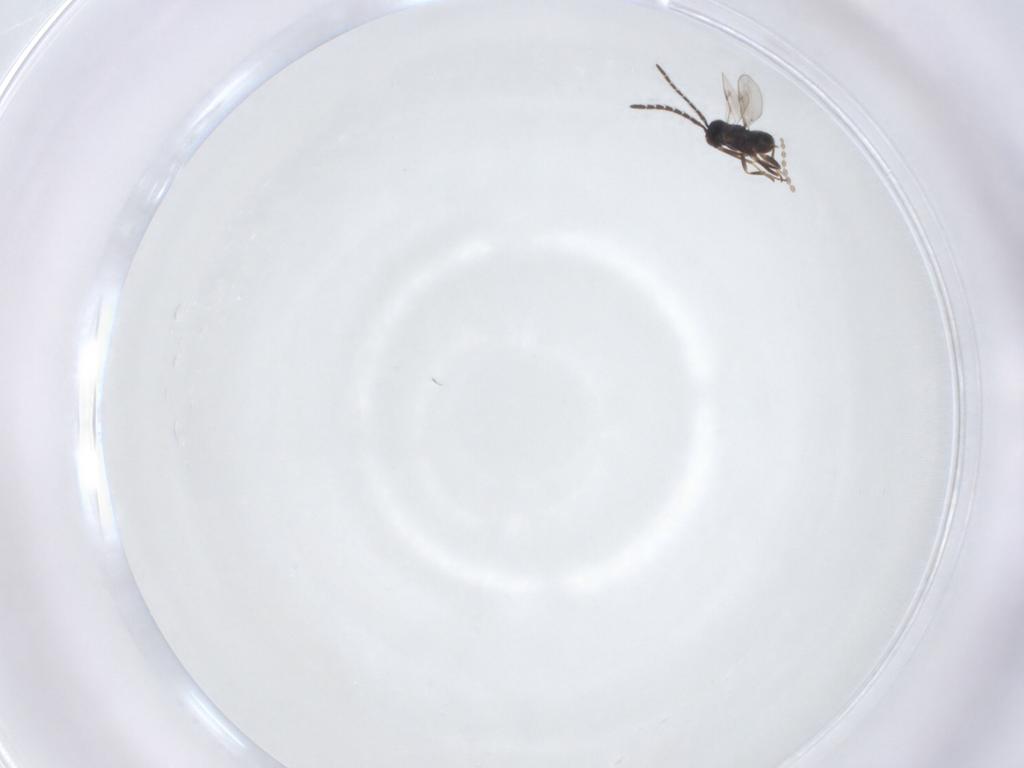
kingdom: Animalia
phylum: Arthropoda
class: Insecta
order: Hymenoptera
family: Encyrtidae
